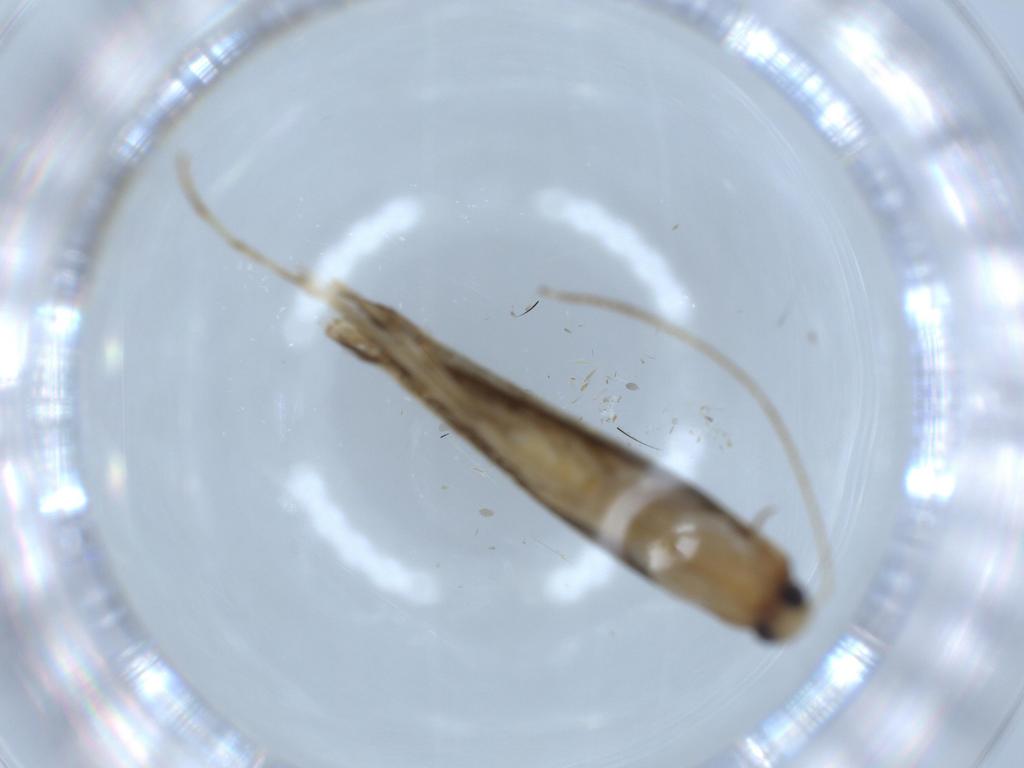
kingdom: Animalia
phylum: Arthropoda
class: Insecta
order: Lepidoptera
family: Gracillariidae
